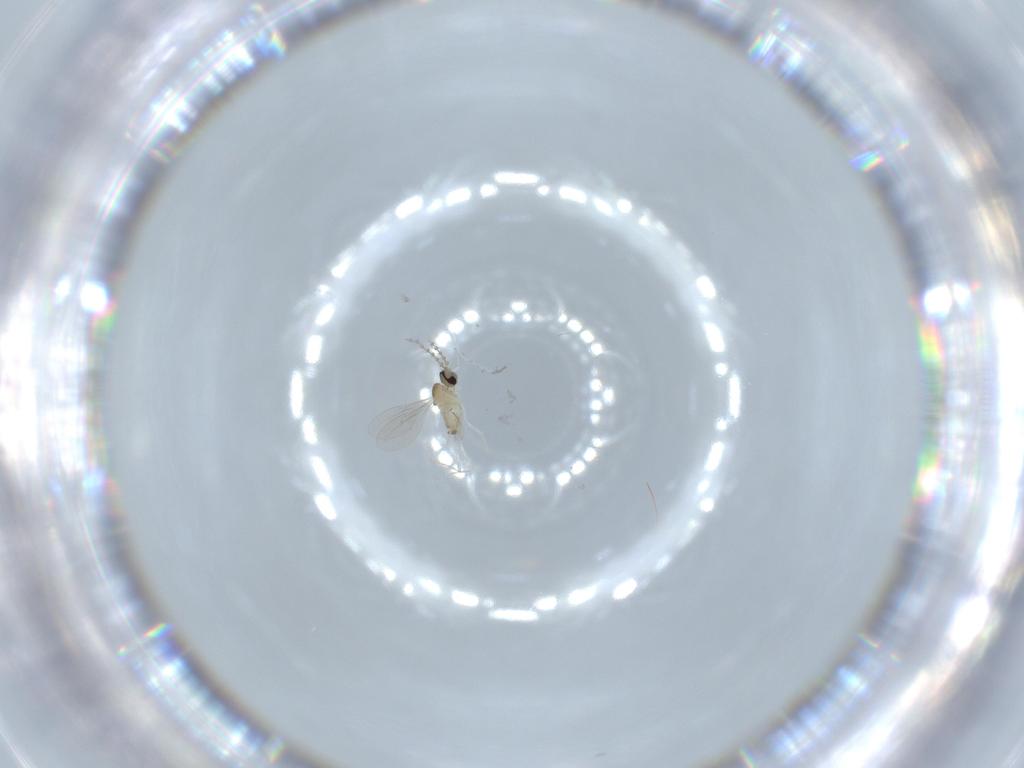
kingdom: Animalia
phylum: Arthropoda
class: Insecta
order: Diptera
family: Cecidomyiidae
